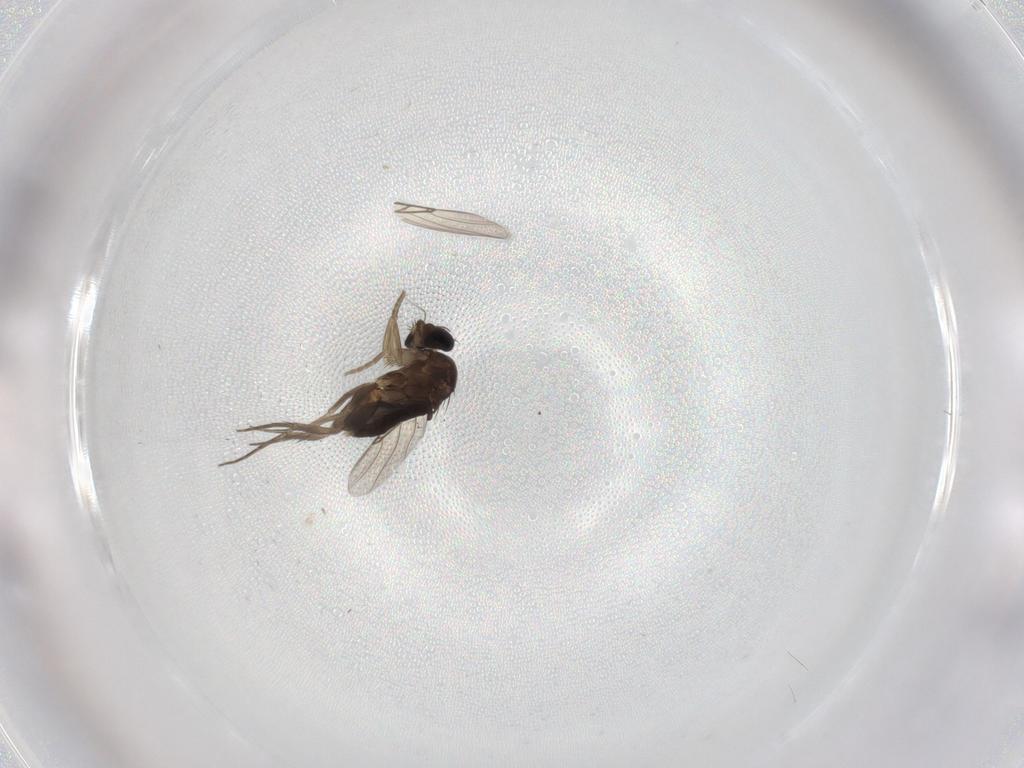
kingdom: Animalia
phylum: Arthropoda
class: Insecta
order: Diptera
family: Phoridae
